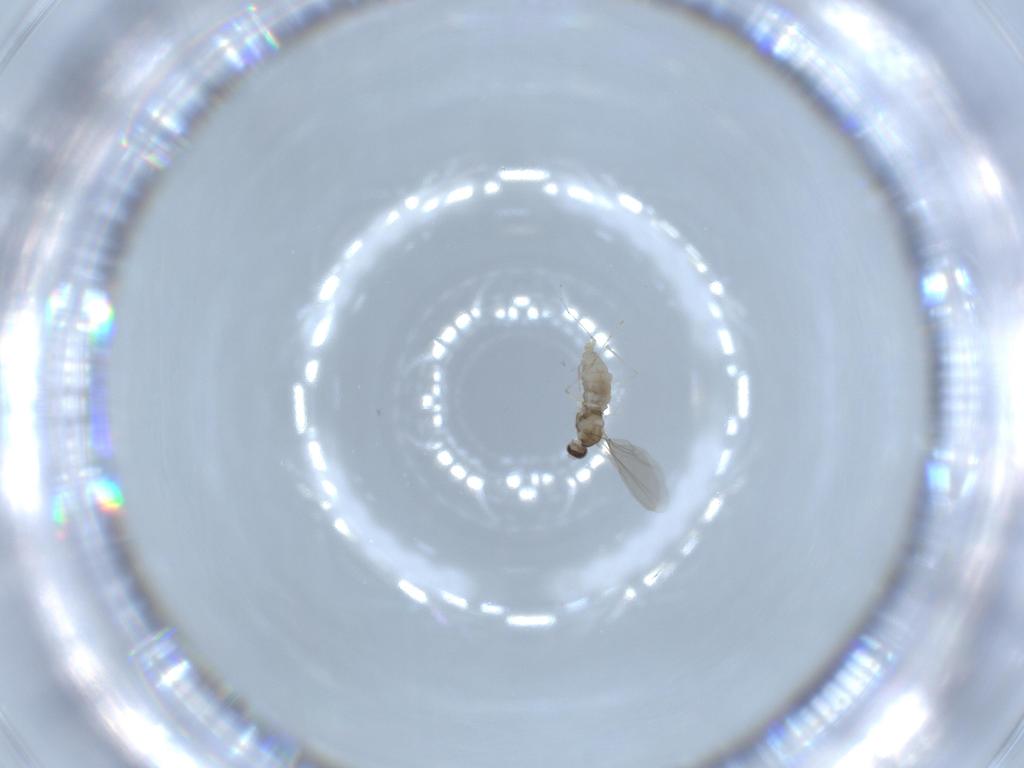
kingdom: Animalia
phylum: Arthropoda
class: Insecta
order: Diptera
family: Cecidomyiidae
